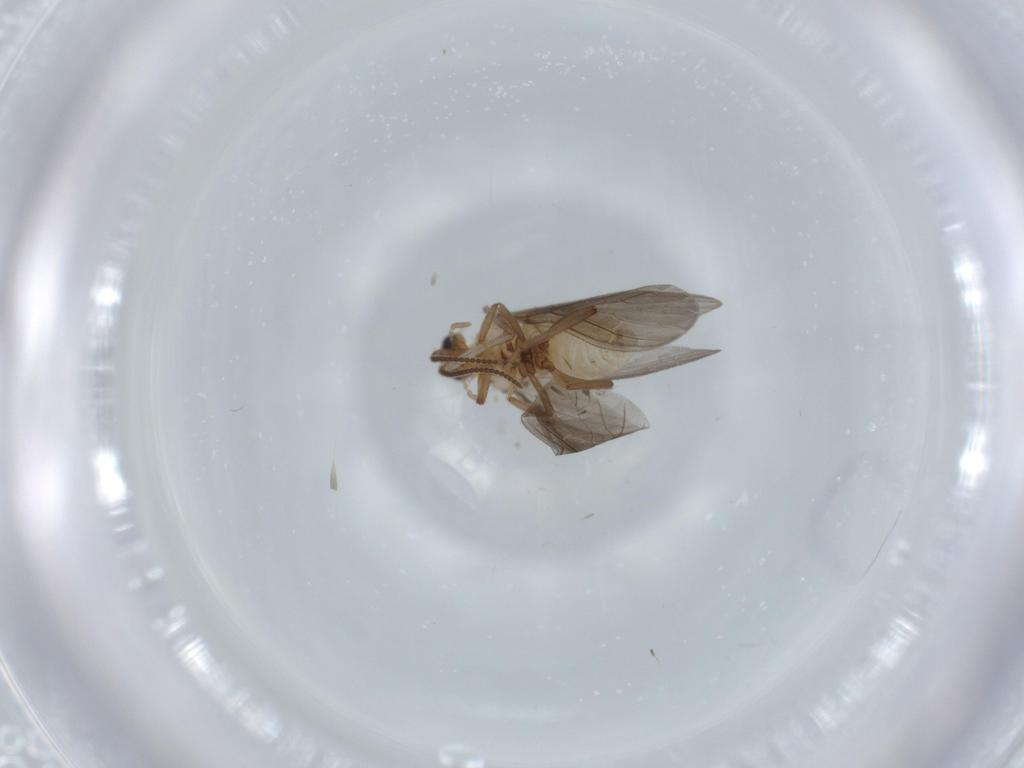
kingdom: Animalia
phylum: Arthropoda
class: Insecta
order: Neuroptera
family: Coniopterygidae
